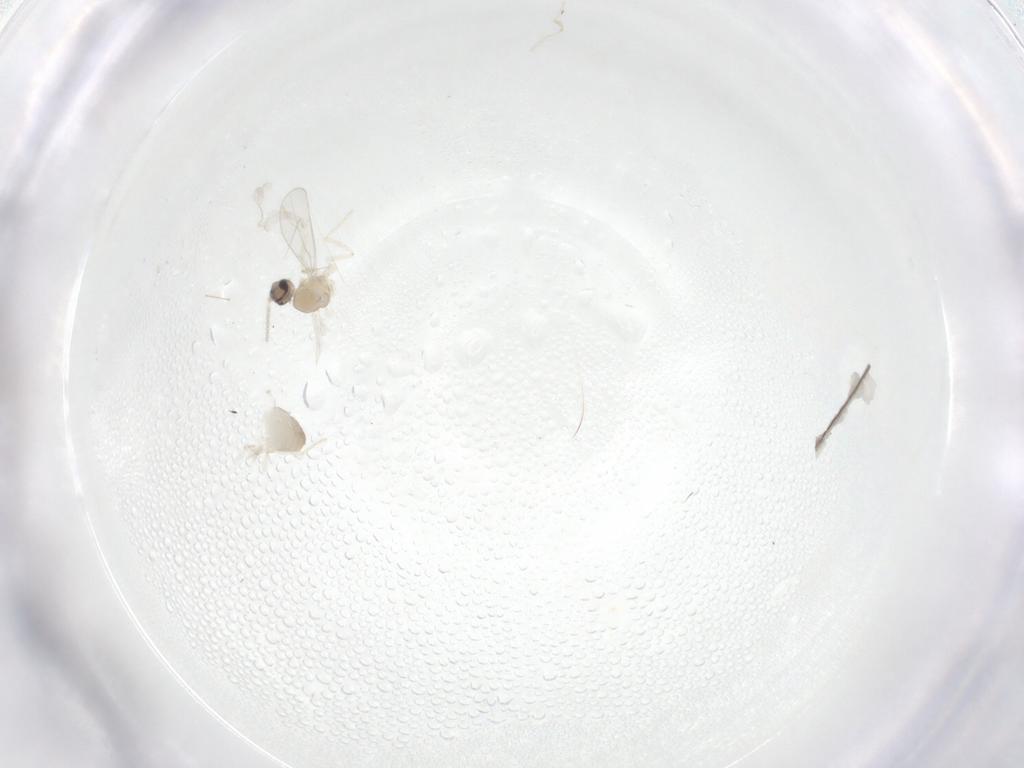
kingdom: Animalia
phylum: Arthropoda
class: Insecta
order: Diptera
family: Cecidomyiidae
